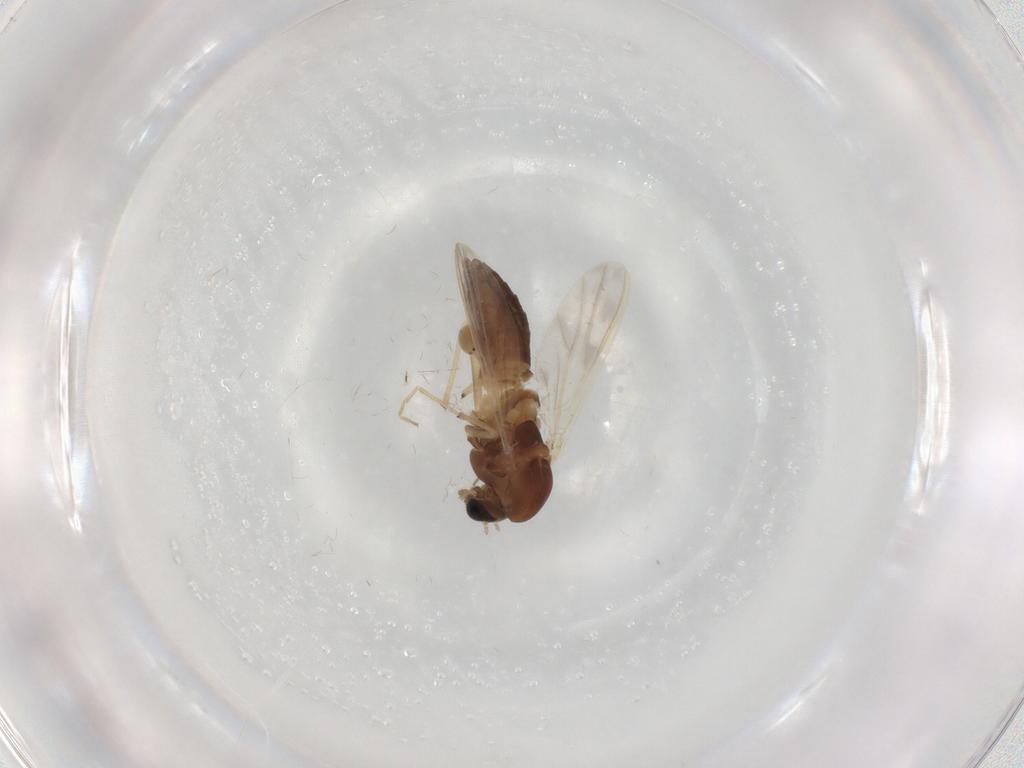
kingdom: Animalia
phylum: Arthropoda
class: Insecta
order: Diptera
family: Chironomidae
